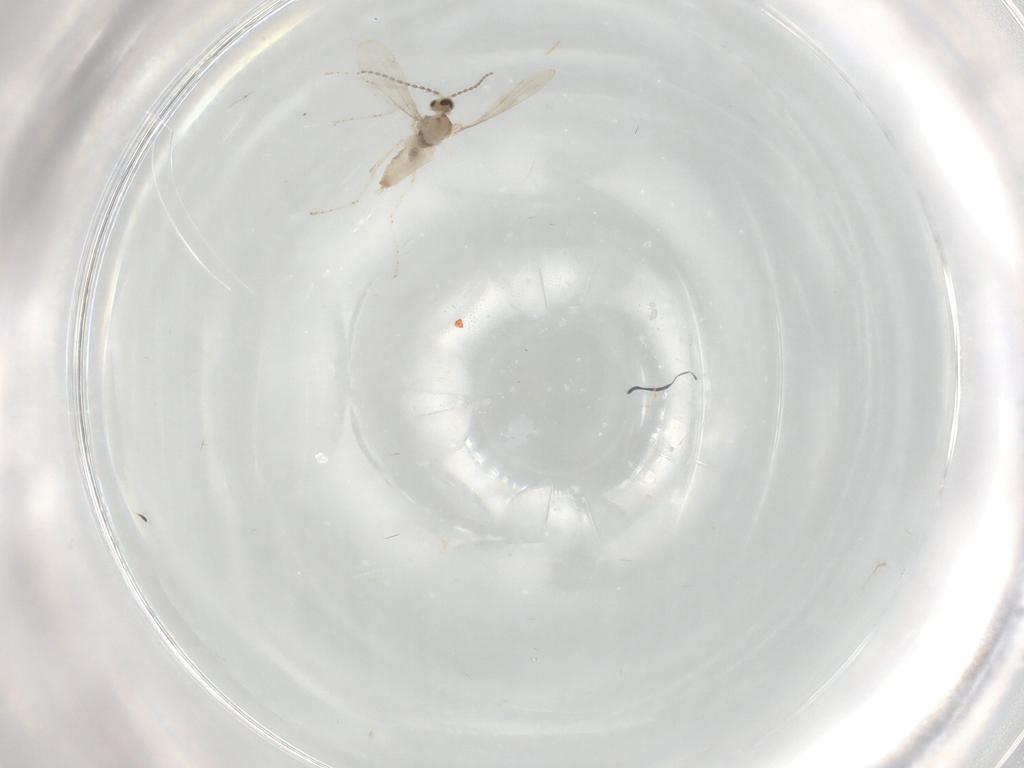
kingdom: Animalia
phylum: Arthropoda
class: Insecta
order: Diptera
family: Cecidomyiidae
